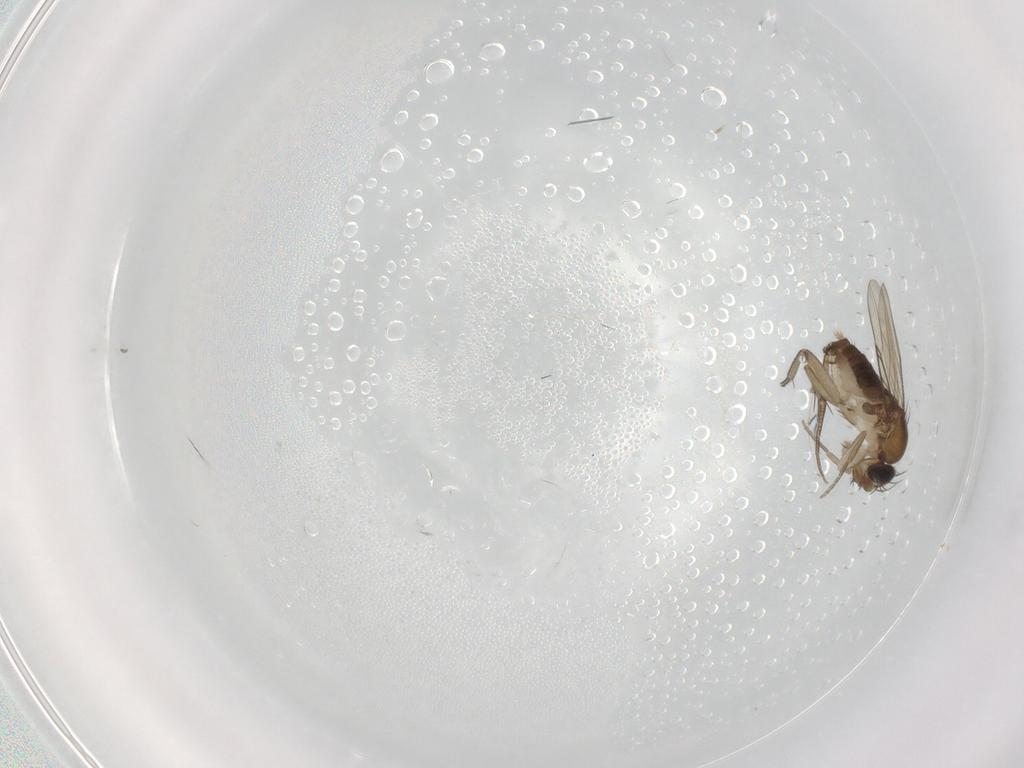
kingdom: Animalia
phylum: Arthropoda
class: Insecta
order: Diptera
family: Phoridae
